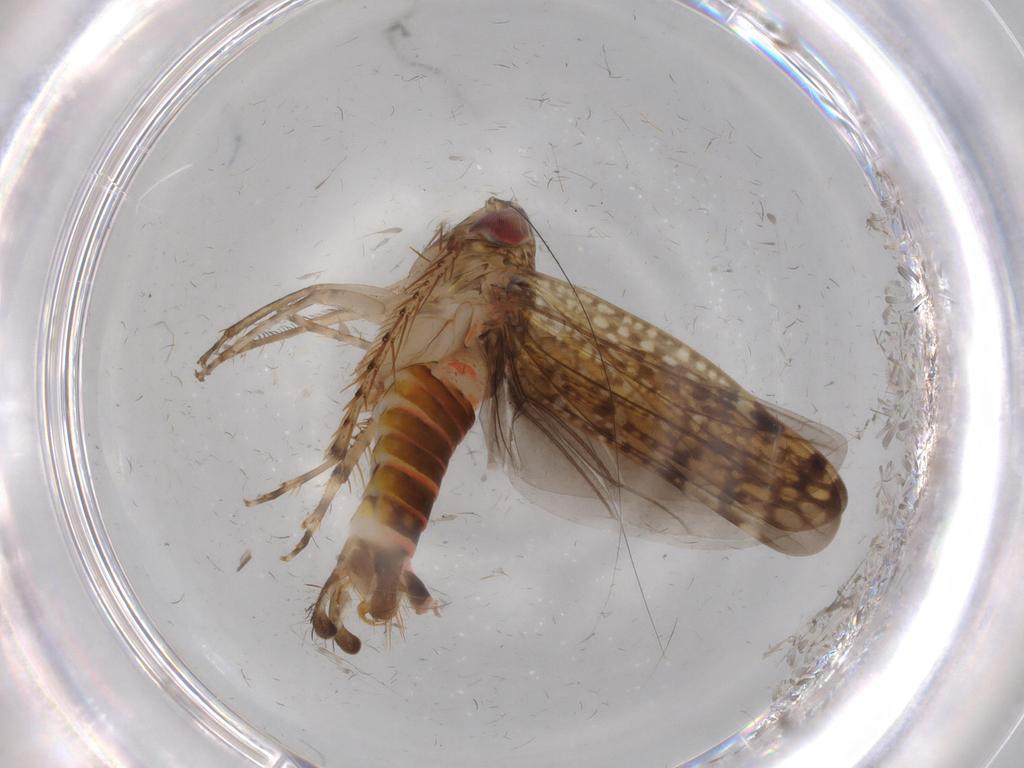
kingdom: Animalia
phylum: Arthropoda
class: Insecta
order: Hemiptera
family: Cicadellidae
